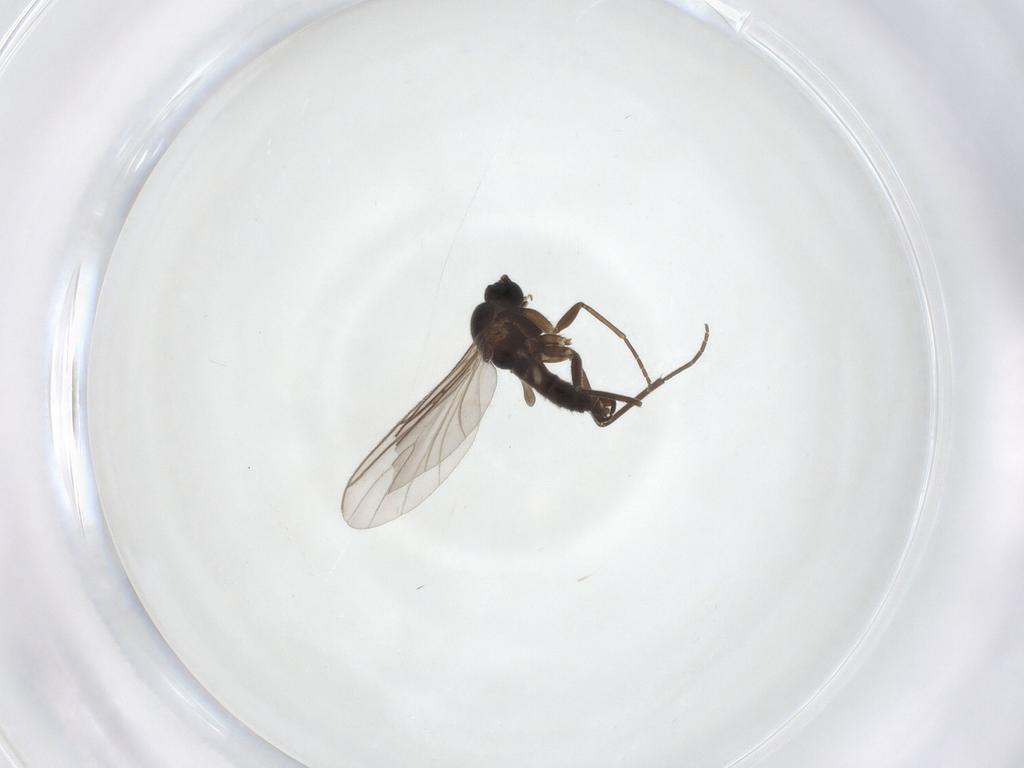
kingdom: Animalia
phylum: Arthropoda
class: Insecta
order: Diptera
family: Sciaridae
